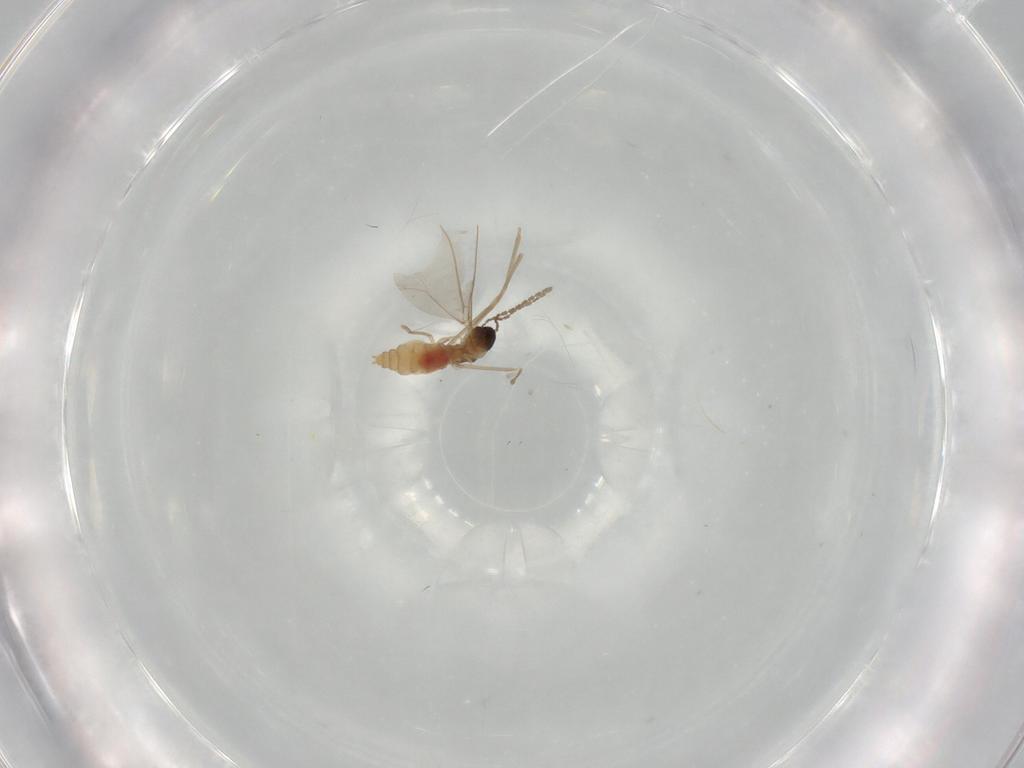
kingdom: Animalia
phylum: Arthropoda
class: Insecta
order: Diptera
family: Cecidomyiidae
